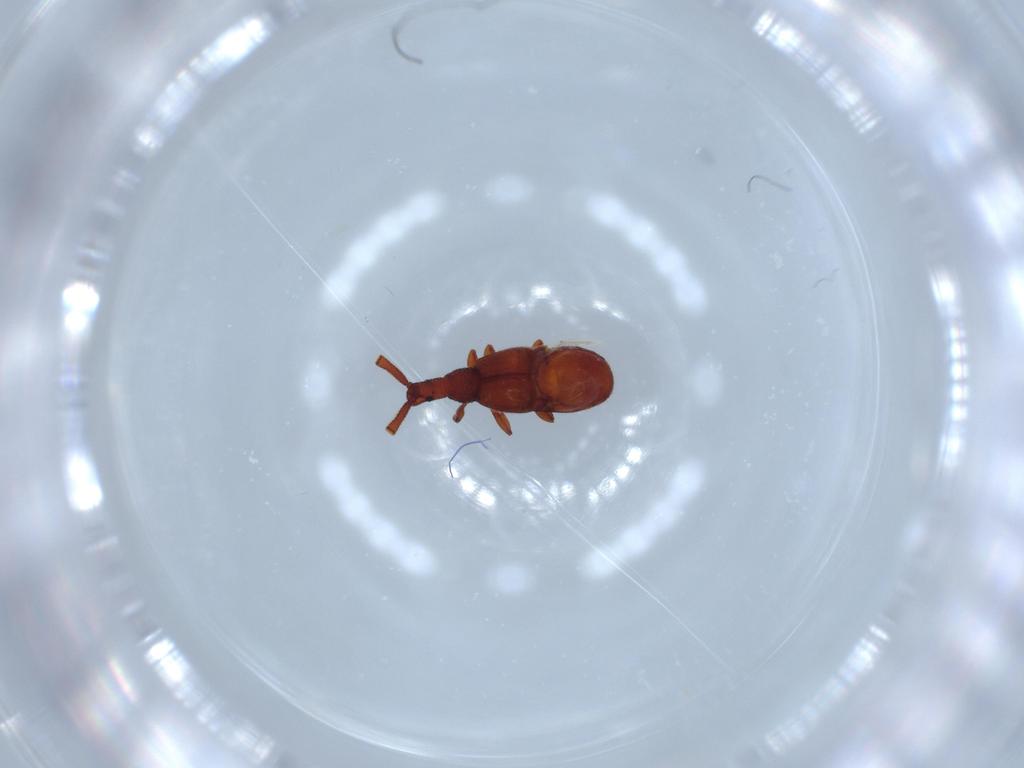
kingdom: Animalia
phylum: Arthropoda
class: Insecta
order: Coleoptera
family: Staphylinidae
